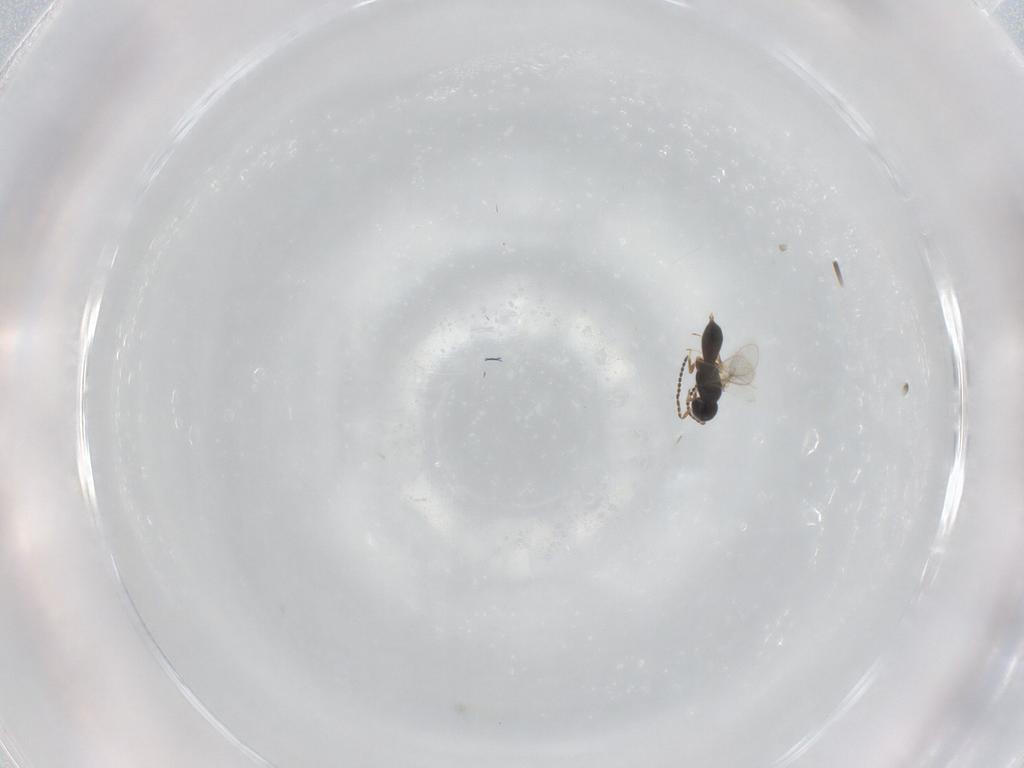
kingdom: Animalia
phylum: Arthropoda
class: Insecta
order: Hymenoptera
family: Scelionidae
